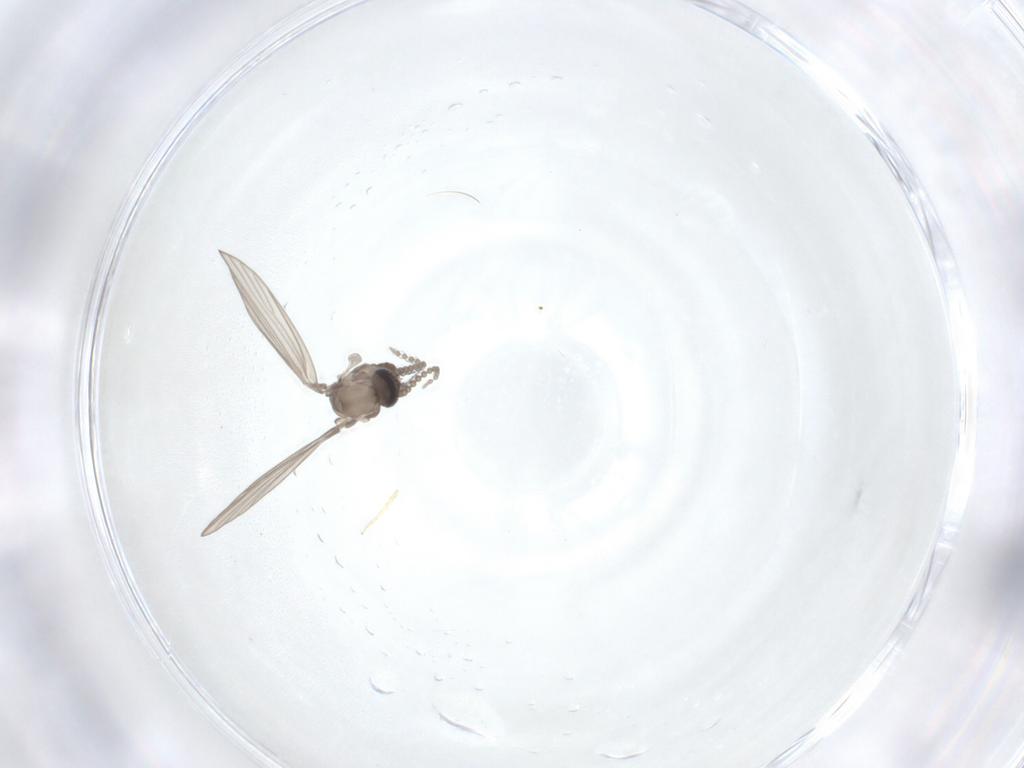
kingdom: Animalia
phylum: Arthropoda
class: Insecta
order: Diptera
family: Psychodidae
